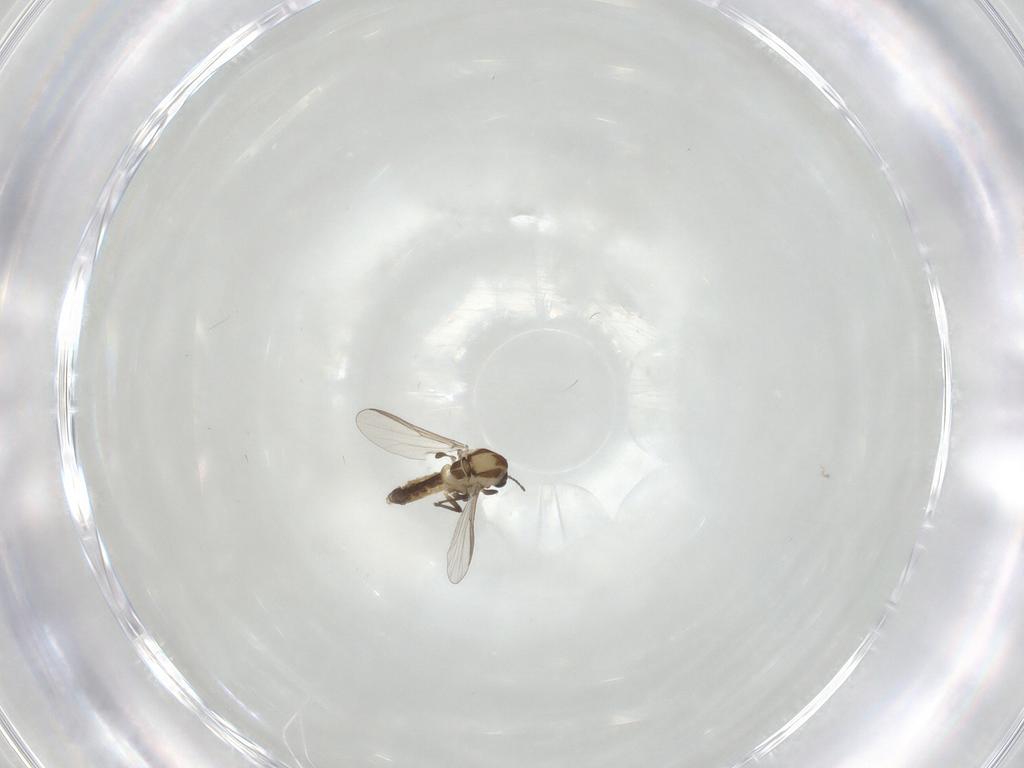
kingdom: Animalia
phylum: Arthropoda
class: Insecta
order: Diptera
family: Chironomidae
